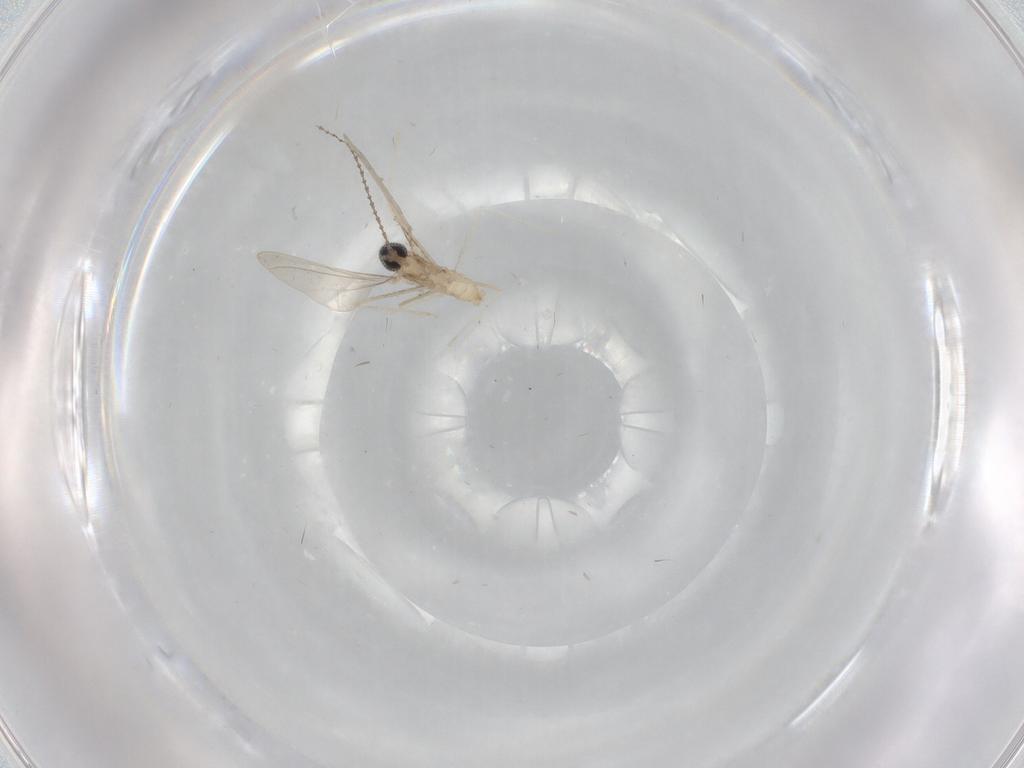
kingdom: Animalia
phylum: Arthropoda
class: Insecta
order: Diptera
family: Cecidomyiidae
